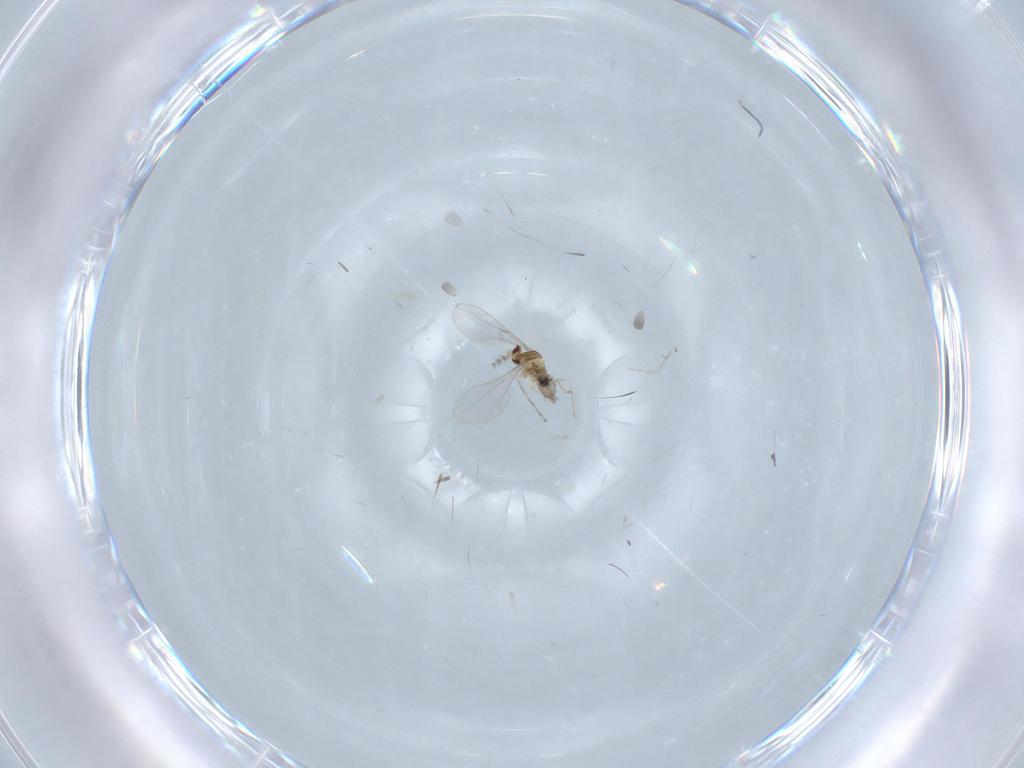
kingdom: Animalia
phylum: Arthropoda
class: Insecta
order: Diptera
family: Cecidomyiidae
